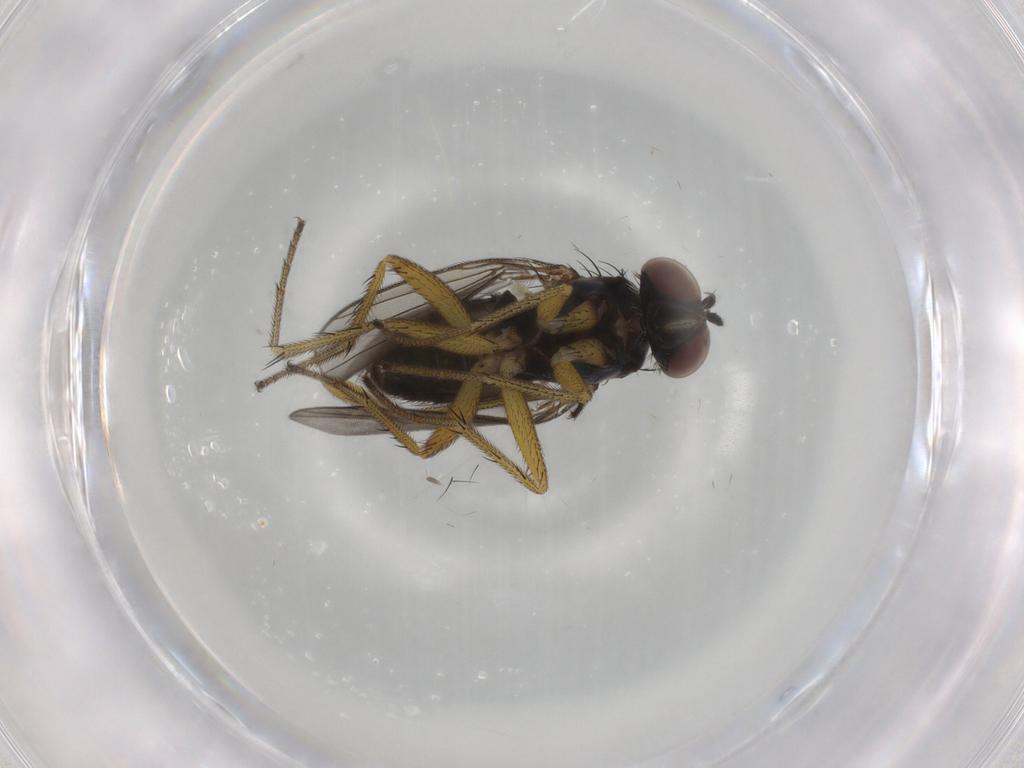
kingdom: Animalia
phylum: Arthropoda
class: Insecta
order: Diptera
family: Dolichopodidae
